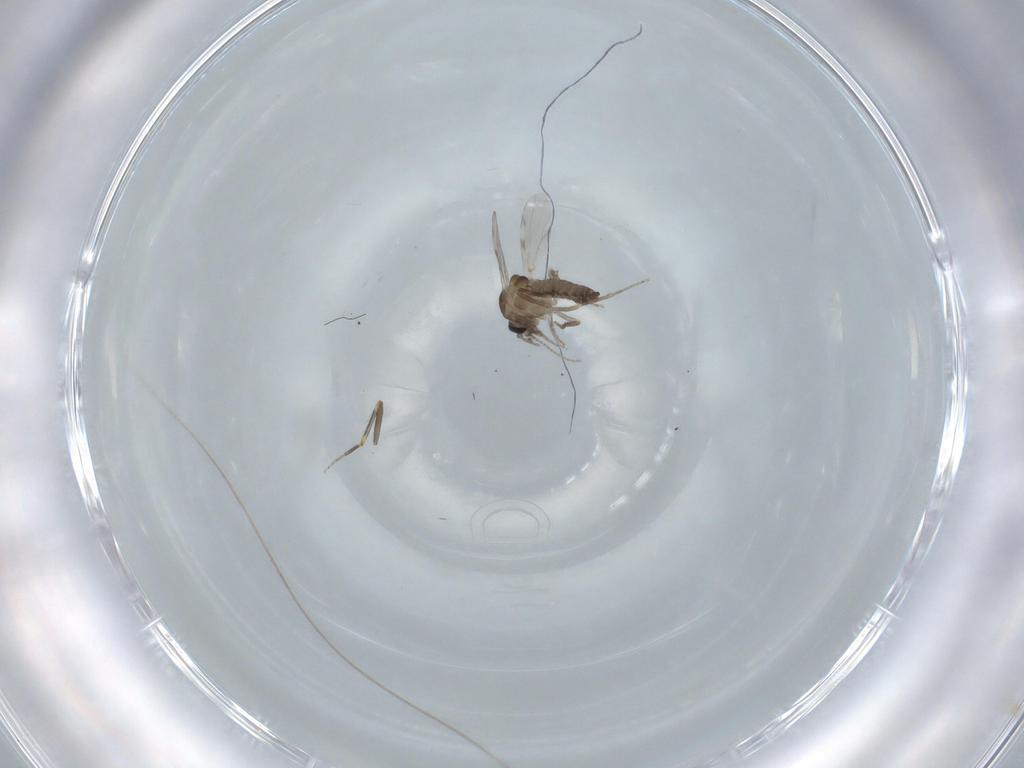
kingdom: Animalia
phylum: Arthropoda
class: Insecta
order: Diptera
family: Ceratopogonidae
